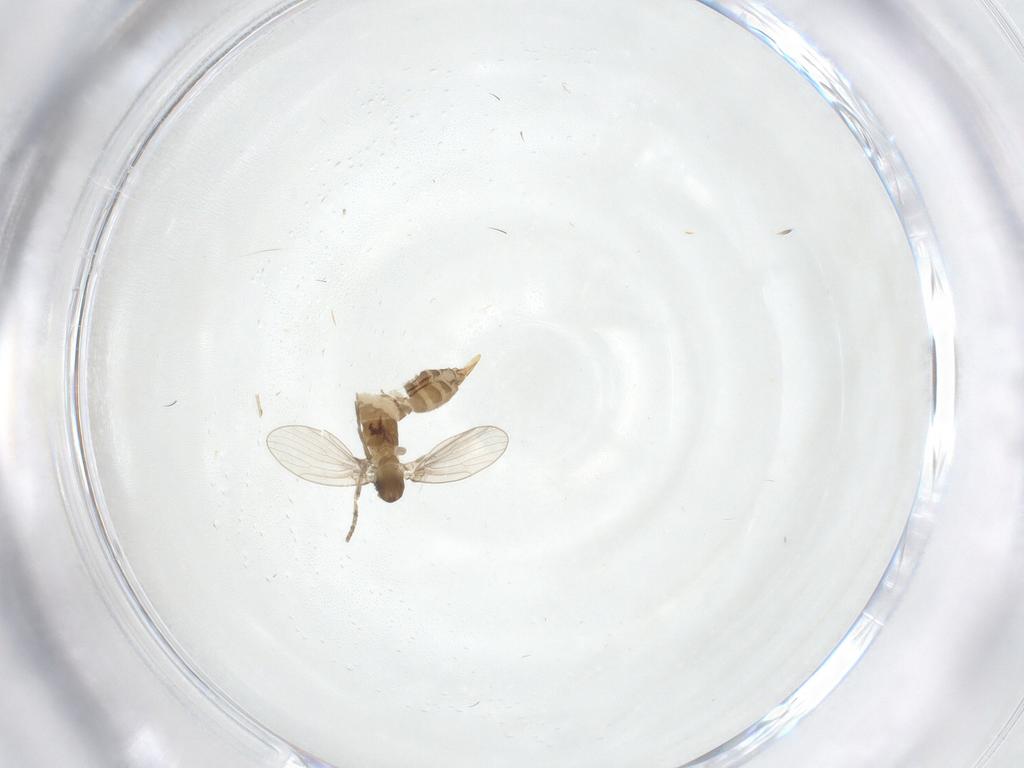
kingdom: Animalia
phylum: Arthropoda
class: Insecta
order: Diptera
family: Psychodidae
